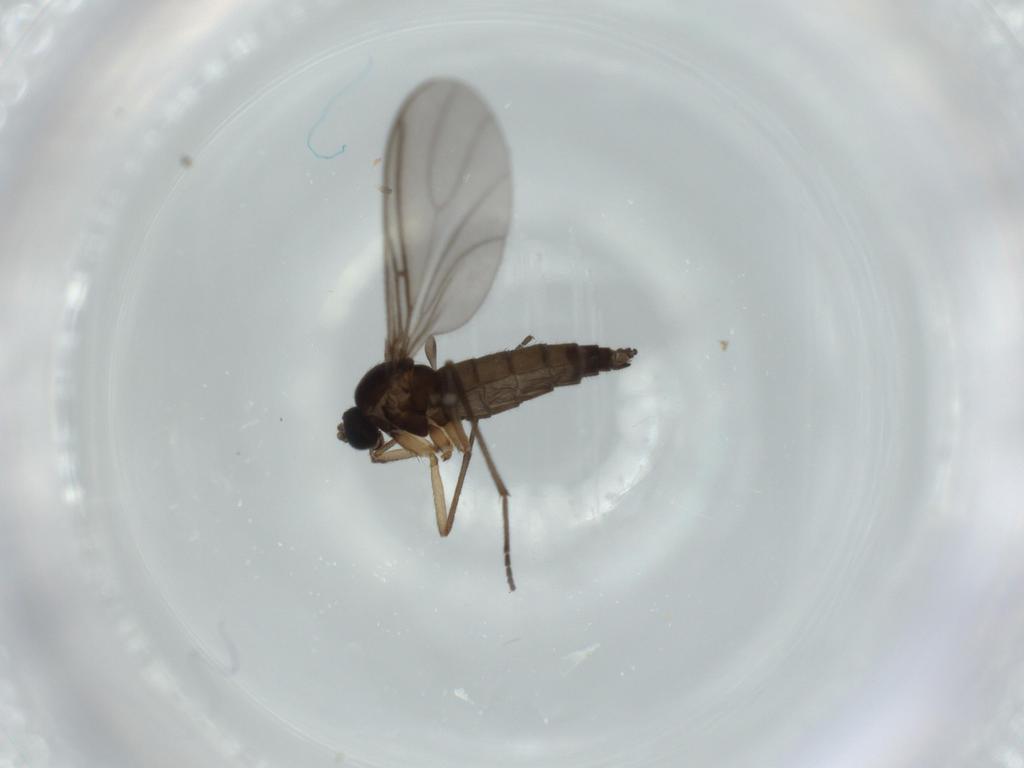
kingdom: Animalia
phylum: Arthropoda
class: Insecta
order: Diptera
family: Sciaridae
